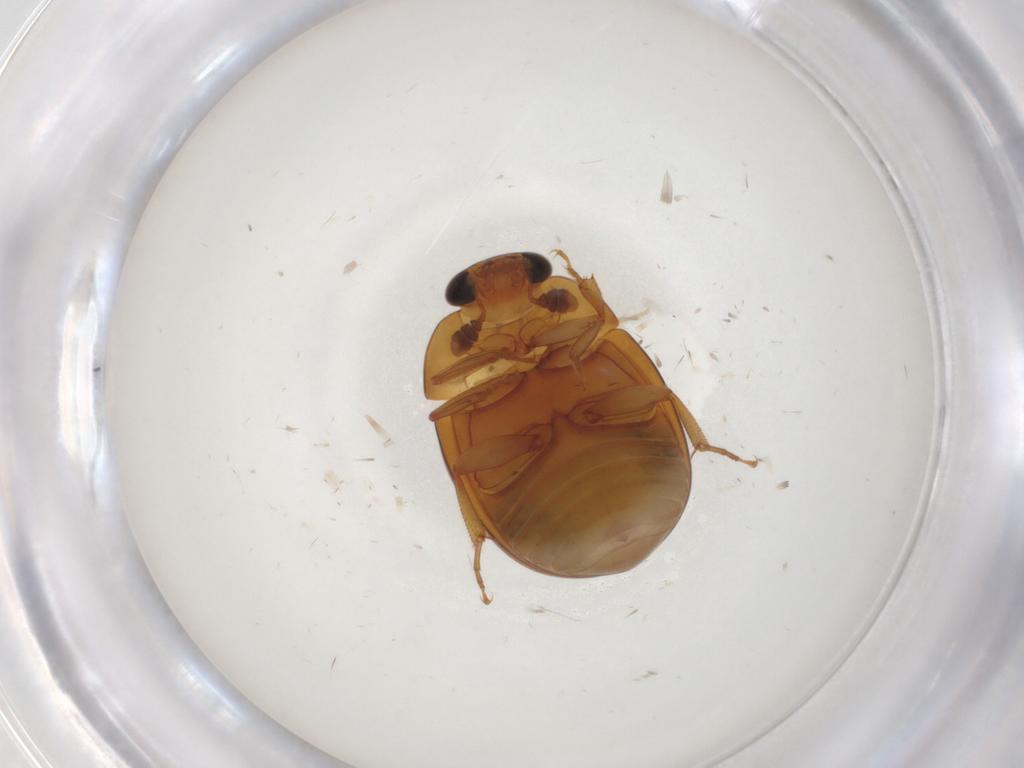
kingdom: Animalia
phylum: Arthropoda
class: Insecta
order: Coleoptera
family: Nitidulidae
